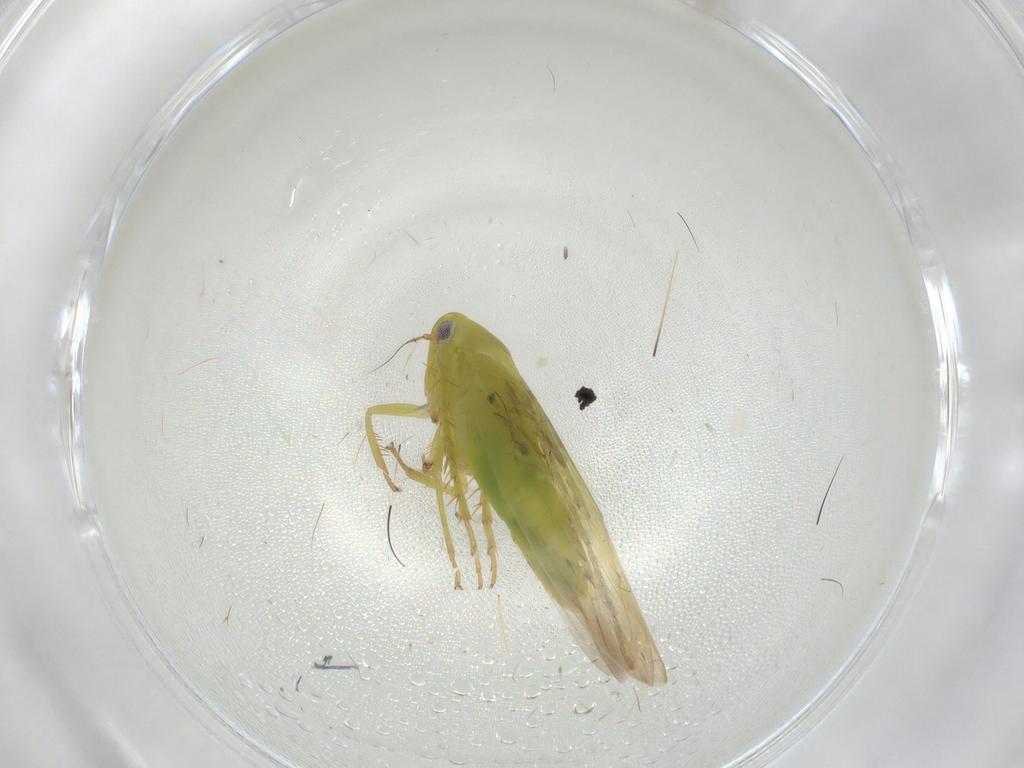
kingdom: Animalia
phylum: Arthropoda
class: Insecta
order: Hemiptera
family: Cicadellidae
